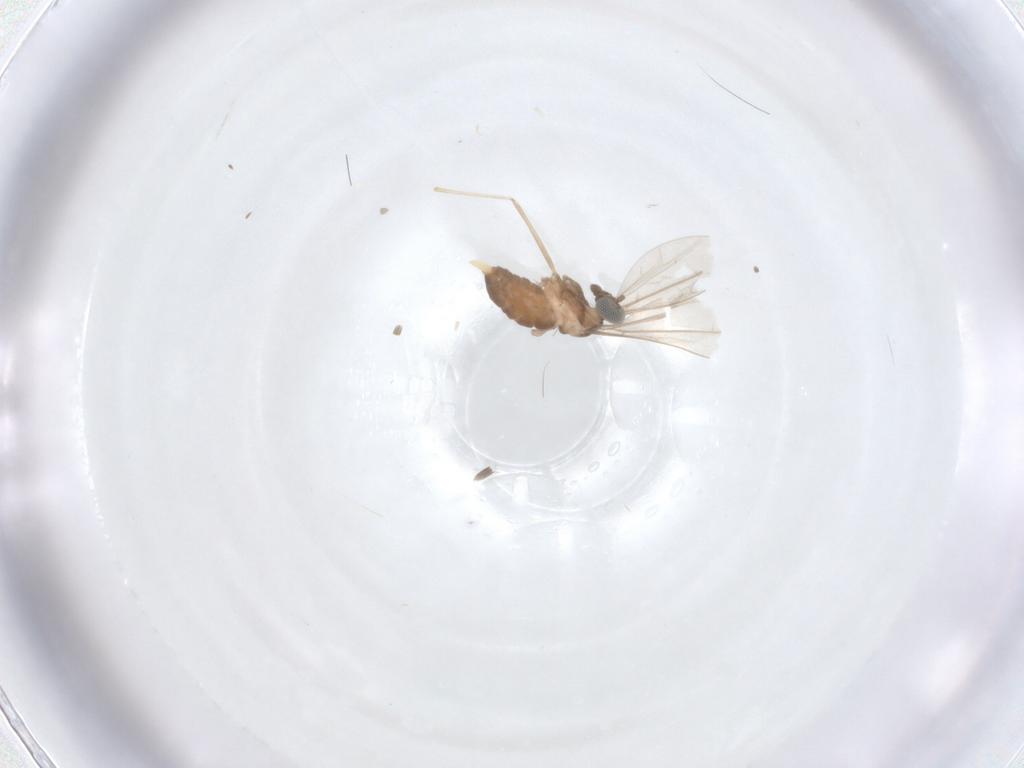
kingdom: Animalia
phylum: Arthropoda
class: Insecta
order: Diptera
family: Cecidomyiidae
